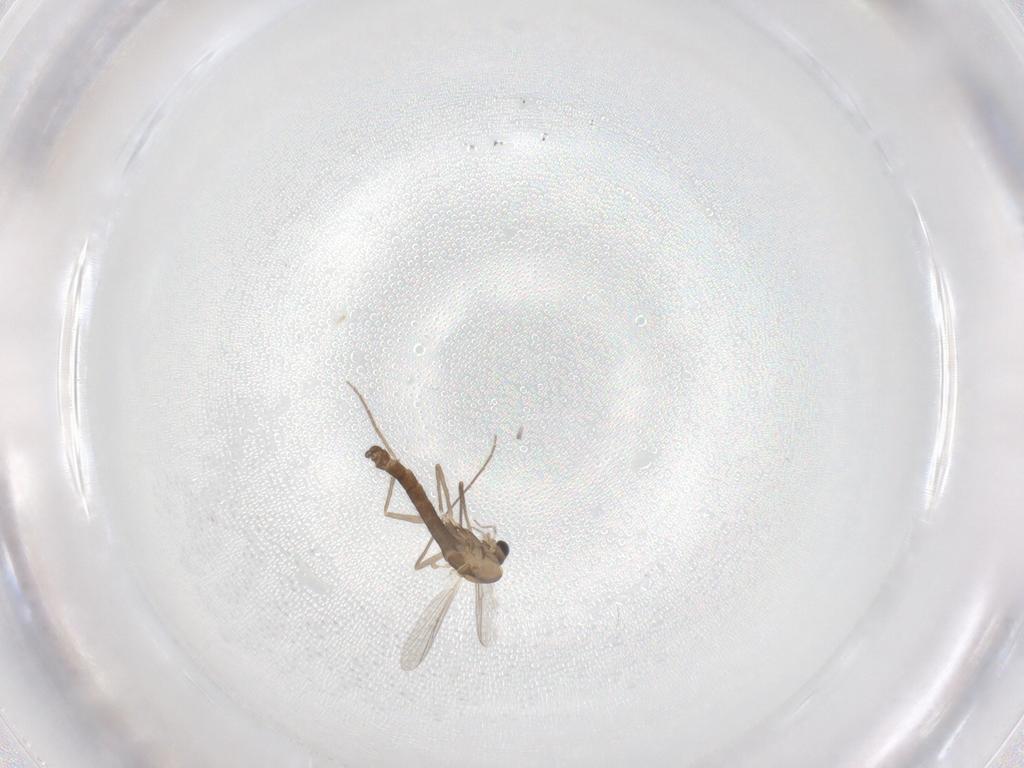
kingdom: Animalia
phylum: Arthropoda
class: Insecta
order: Diptera
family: Chironomidae
